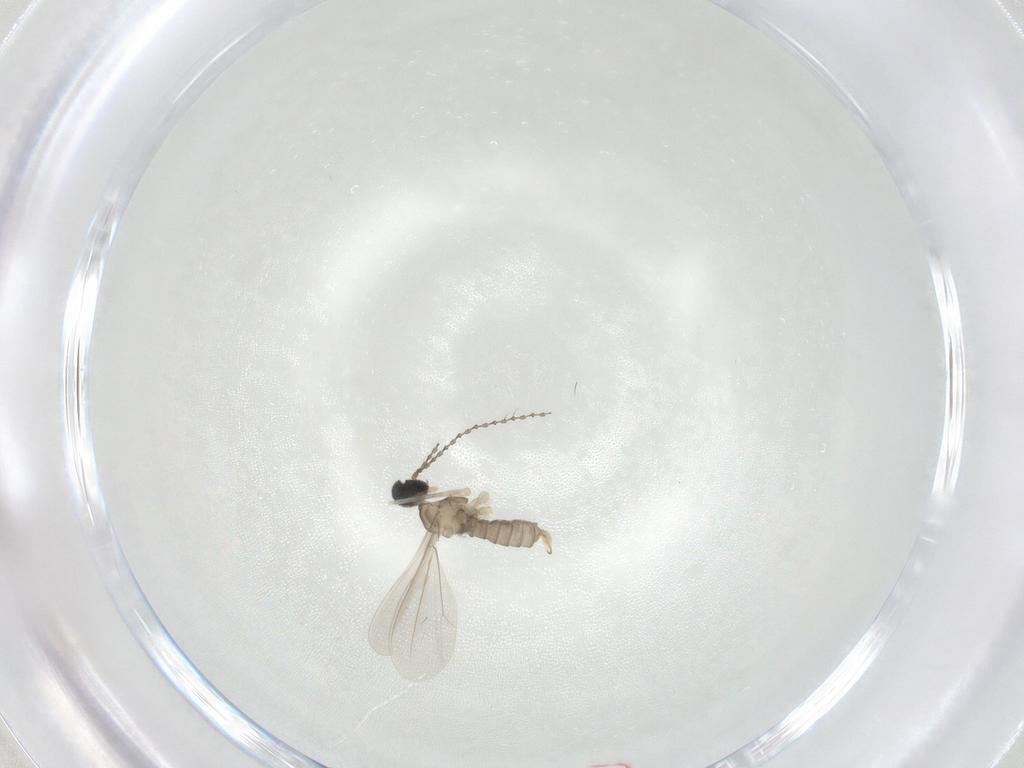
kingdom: Animalia
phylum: Arthropoda
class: Insecta
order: Diptera
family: Cecidomyiidae
